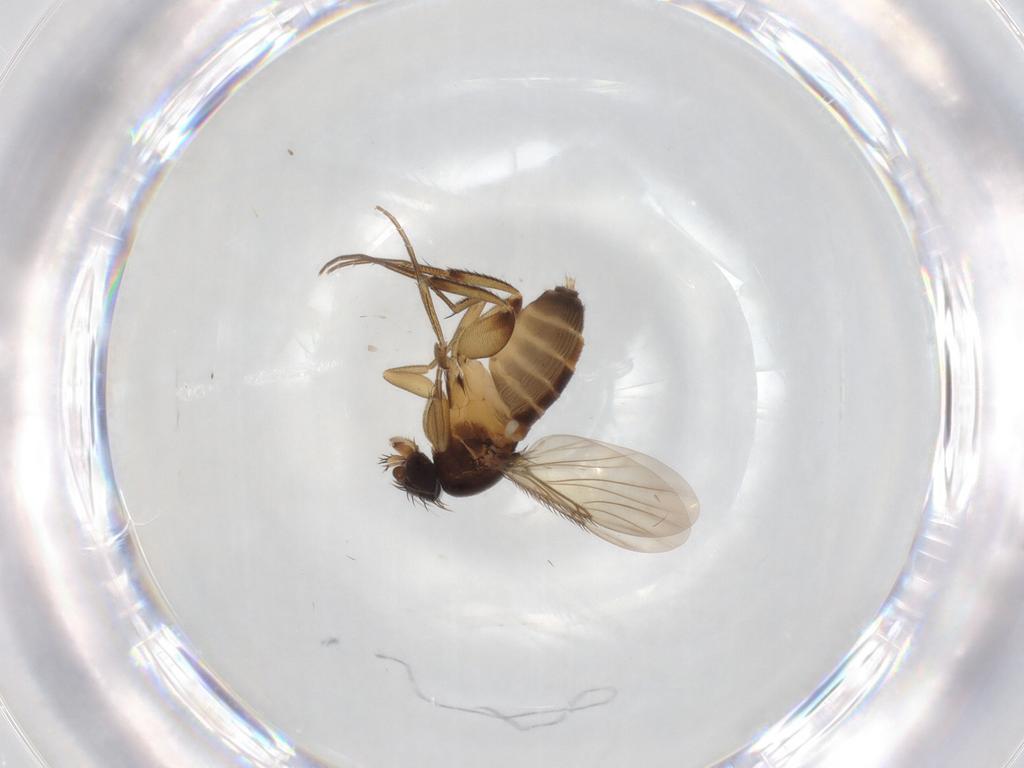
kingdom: Animalia
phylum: Arthropoda
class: Insecta
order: Diptera
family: Phoridae
